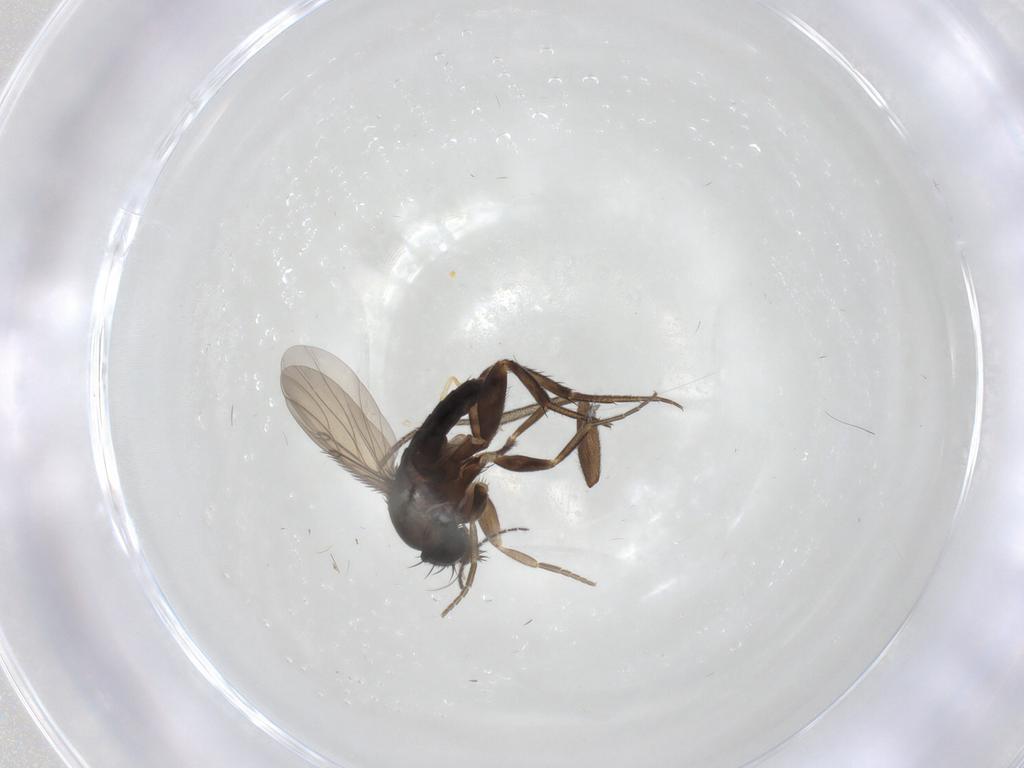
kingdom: Animalia
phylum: Arthropoda
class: Insecta
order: Diptera
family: Phoridae
